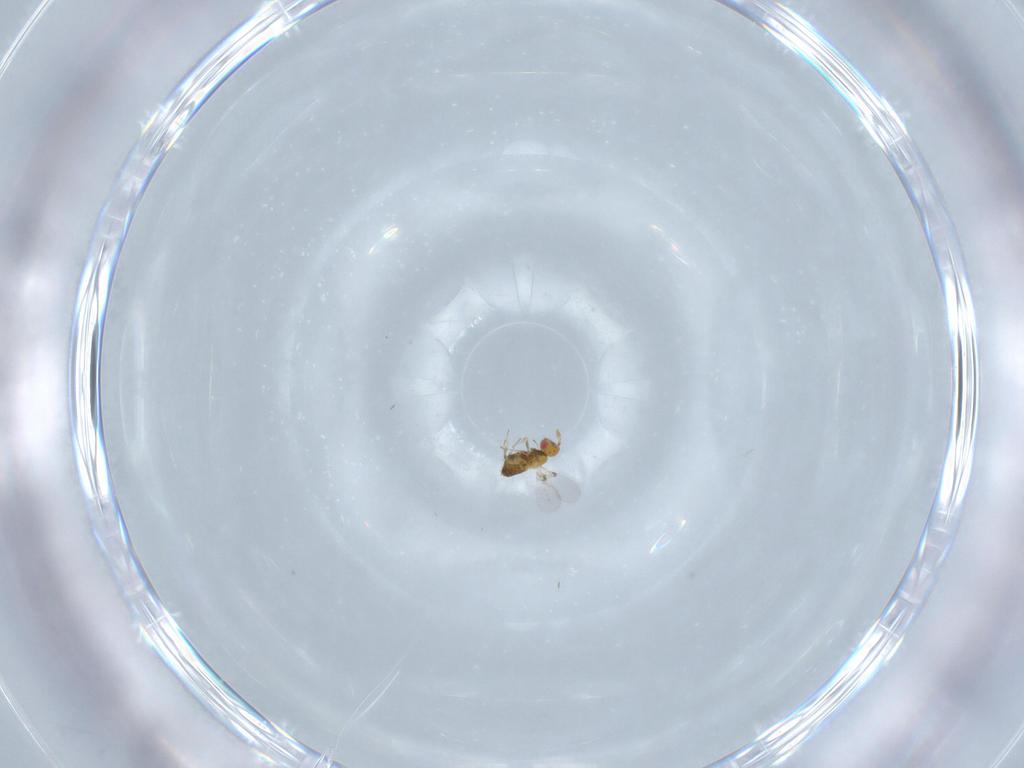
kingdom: Animalia
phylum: Arthropoda
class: Insecta
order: Hymenoptera
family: Trichogrammatidae
